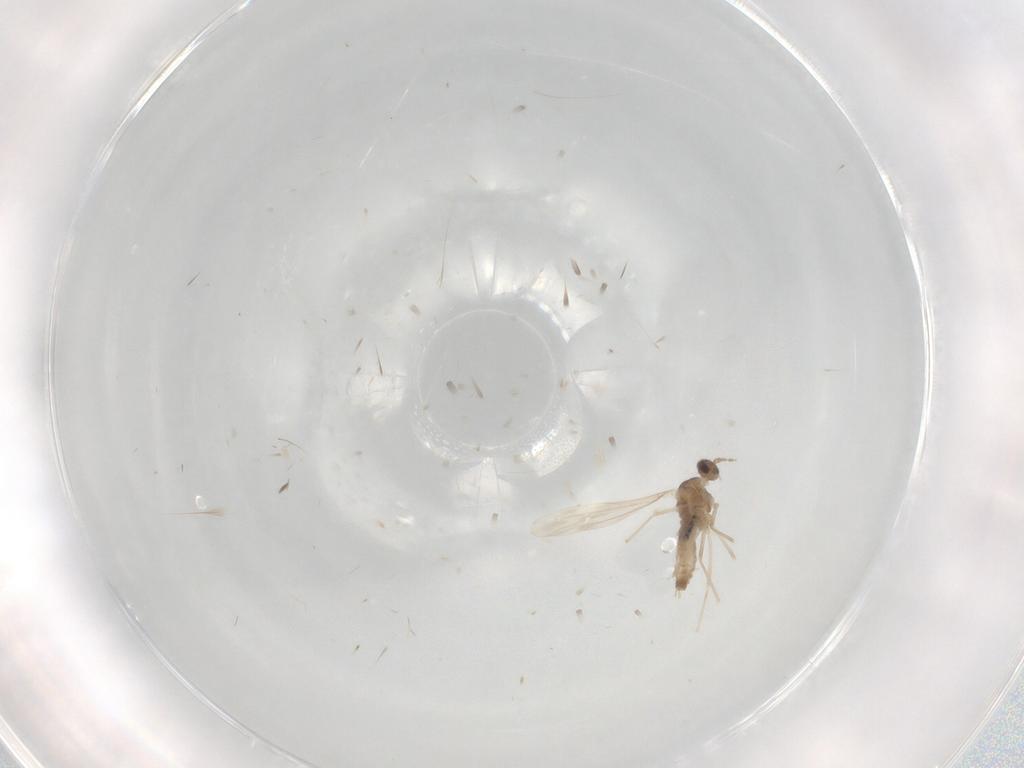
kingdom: Animalia
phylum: Arthropoda
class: Insecta
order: Diptera
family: Cecidomyiidae
